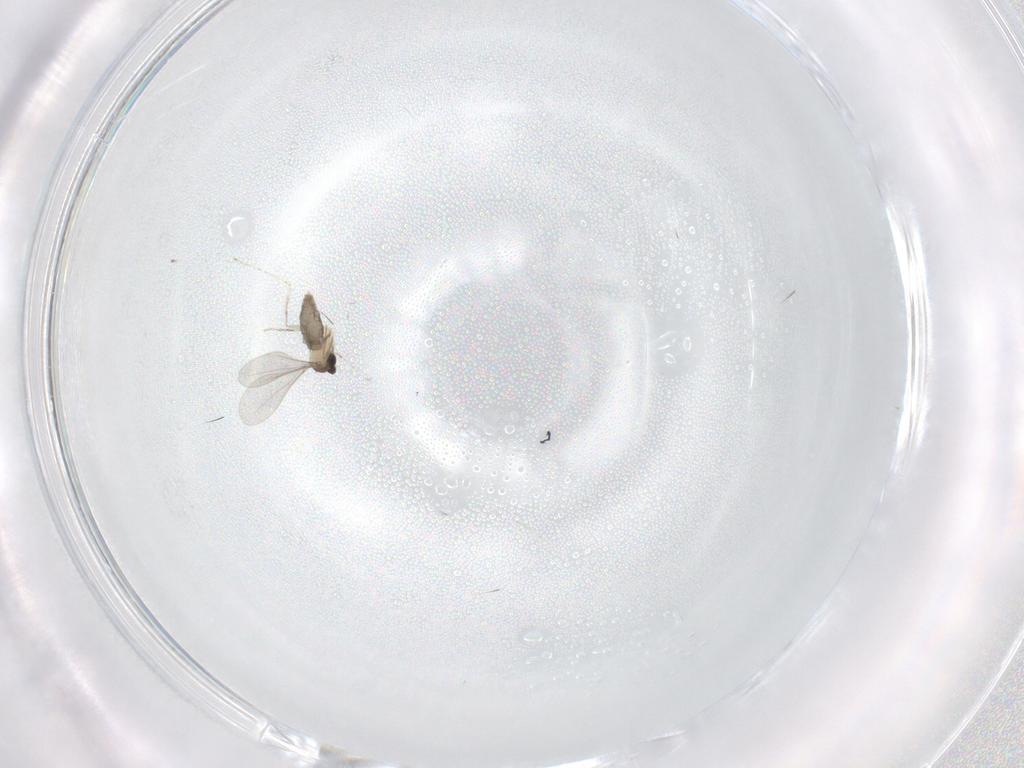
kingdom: Animalia
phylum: Arthropoda
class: Insecta
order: Diptera
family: Cecidomyiidae
